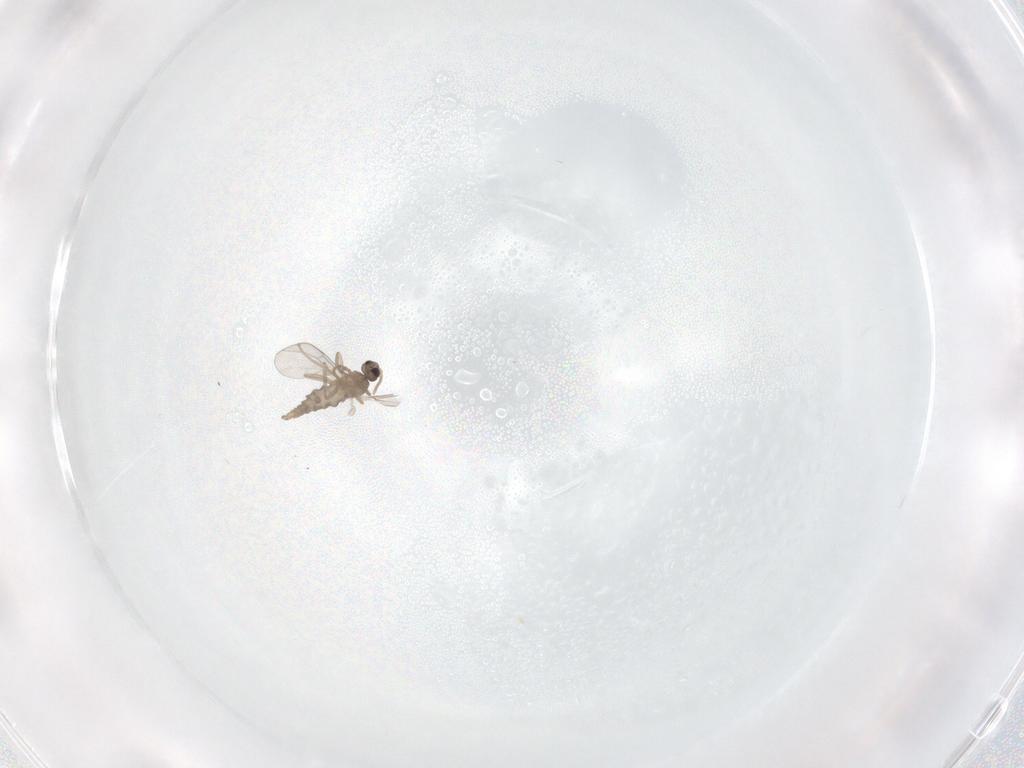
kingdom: Animalia
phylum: Arthropoda
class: Insecta
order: Diptera
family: Cecidomyiidae
